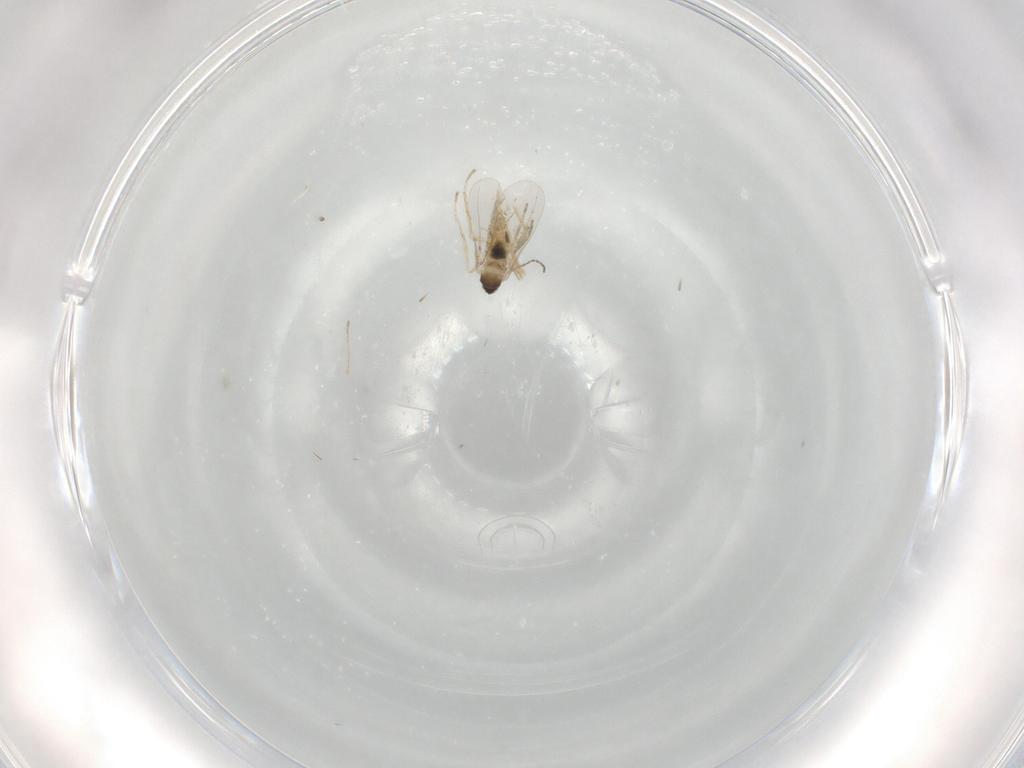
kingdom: Animalia
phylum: Arthropoda
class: Insecta
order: Diptera
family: Cecidomyiidae
